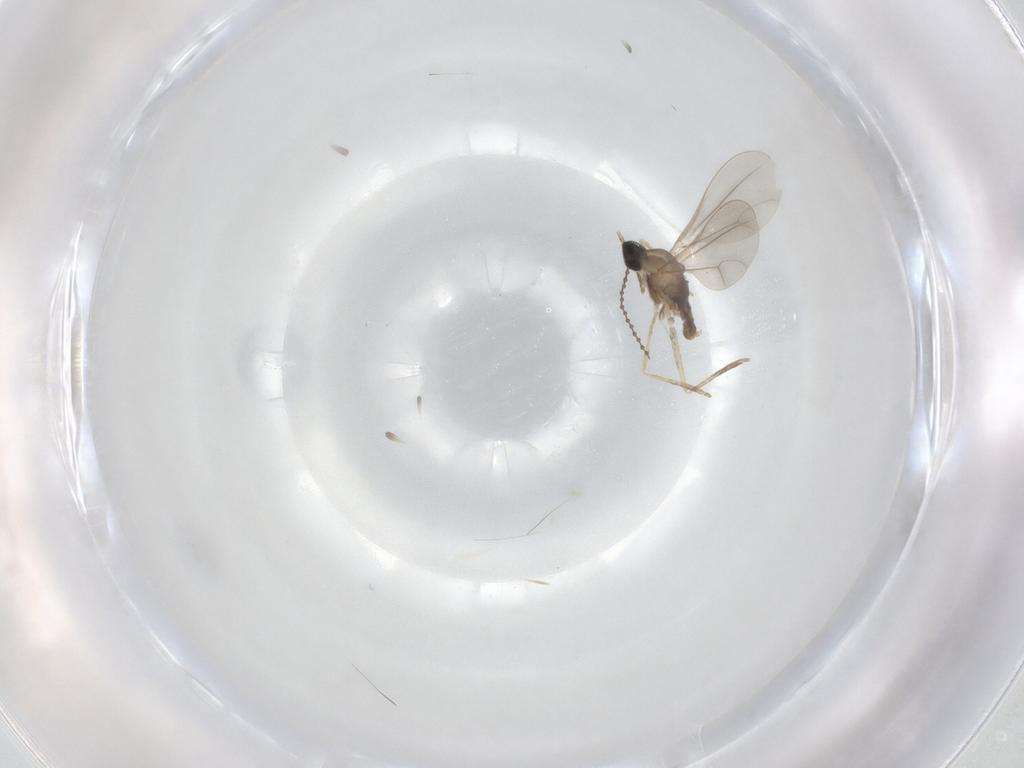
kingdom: Animalia
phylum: Arthropoda
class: Insecta
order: Diptera
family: Cecidomyiidae
